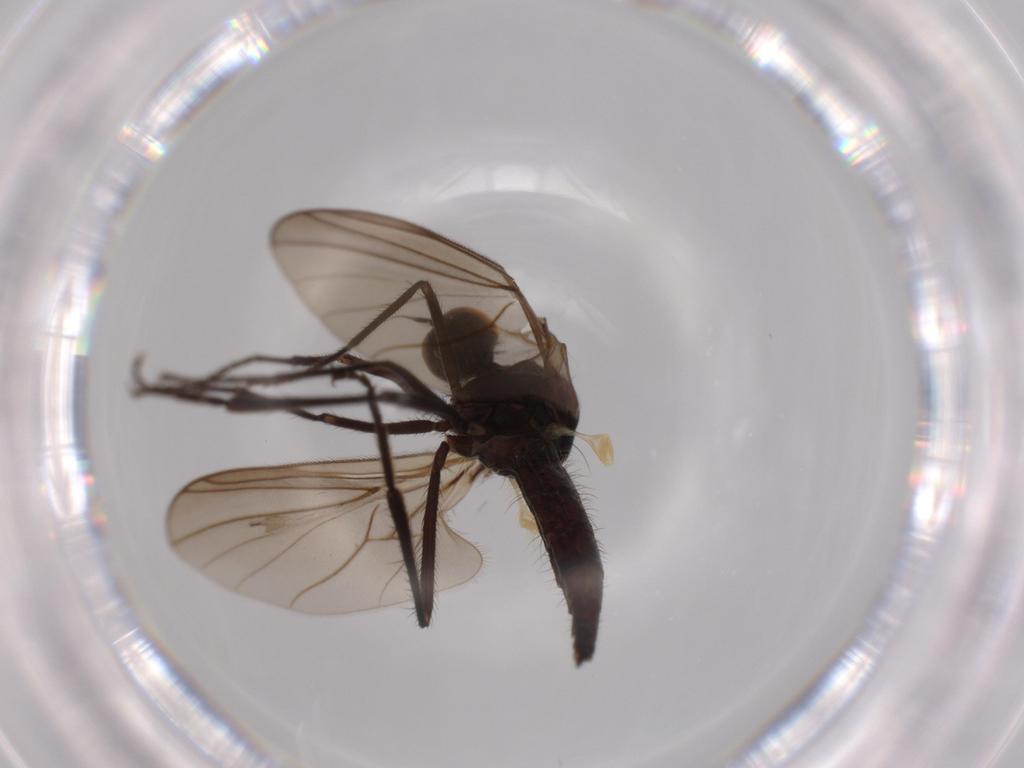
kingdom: Animalia
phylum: Arthropoda
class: Insecta
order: Diptera
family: Hybotidae
